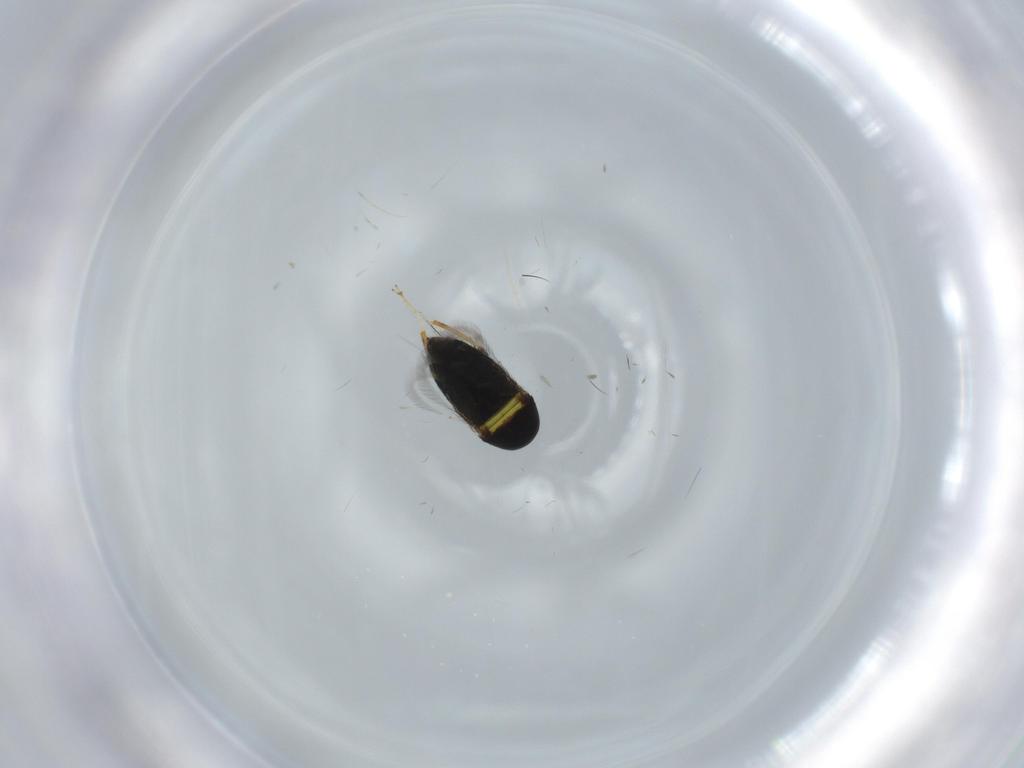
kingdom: Animalia
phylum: Arthropoda
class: Insecta
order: Hymenoptera
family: Signiphoridae
